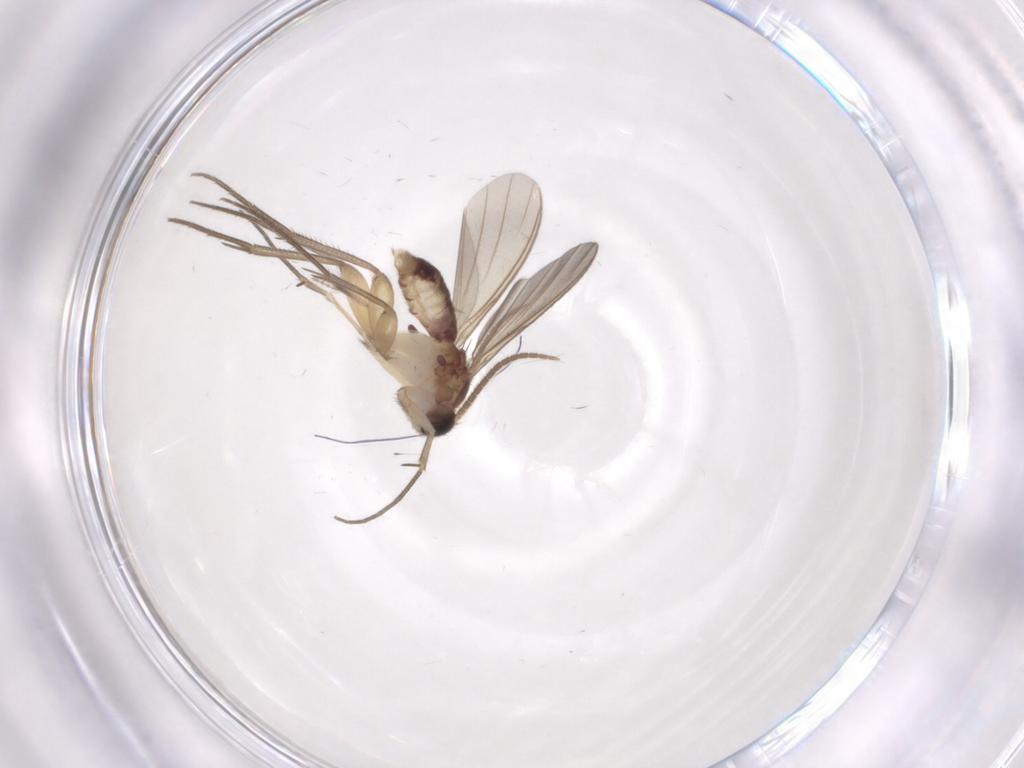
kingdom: Animalia
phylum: Arthropoda
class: Insecta
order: Diptera
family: Mycetophilidae
